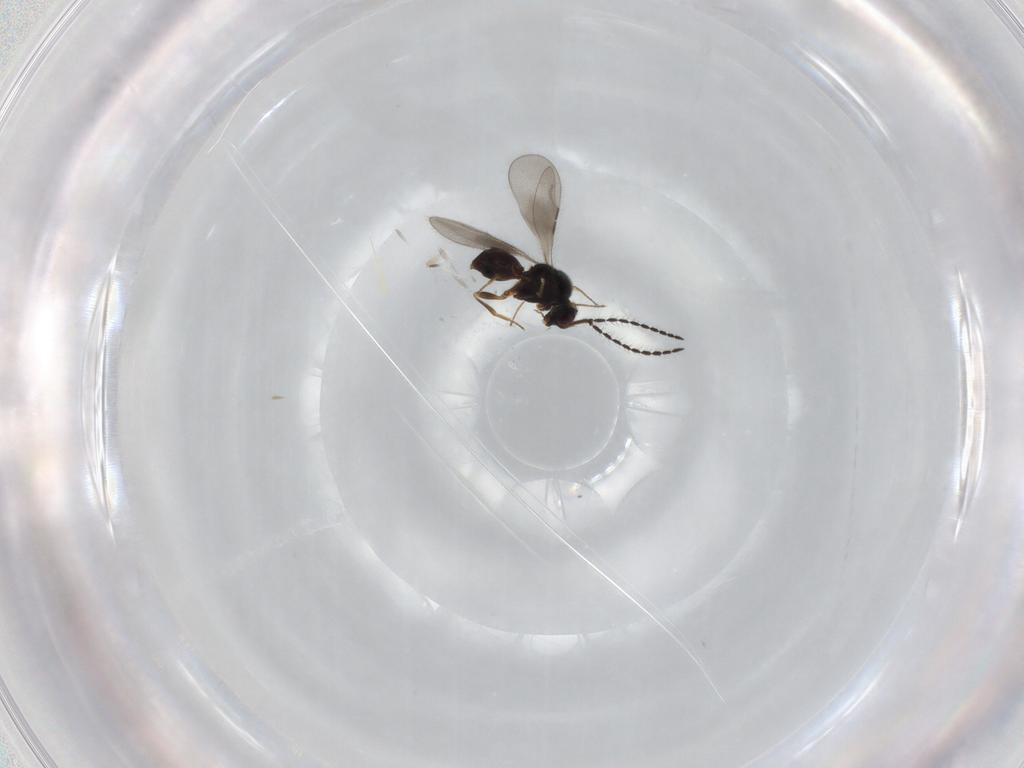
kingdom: Animalia
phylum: Arthropoda
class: Insecta
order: Hymenoptera
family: Ceraphronidae
